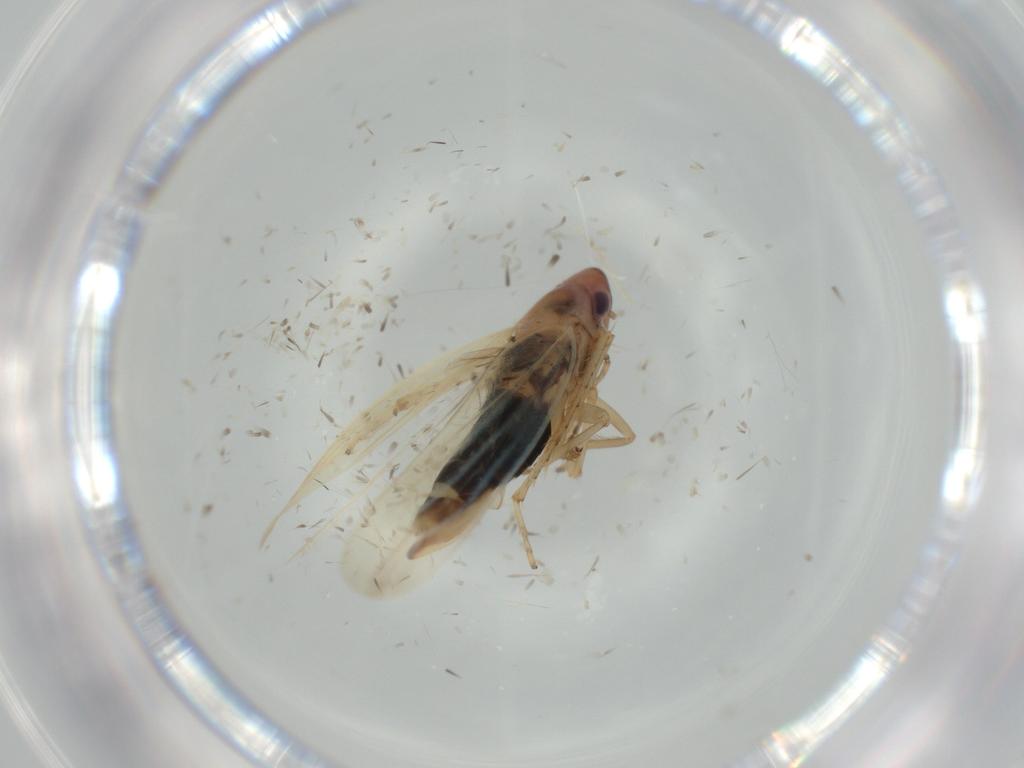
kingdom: Animalia
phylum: Arthropoda
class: Insecta
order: Hemiptera
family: Cicadellidae
